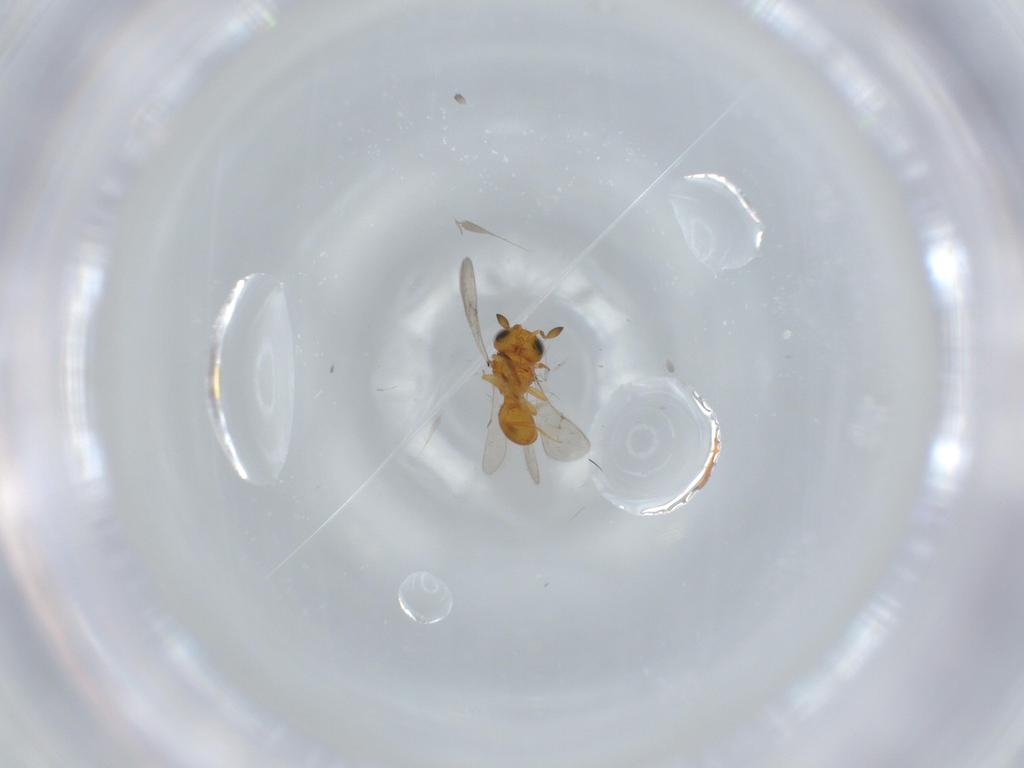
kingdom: Animalia
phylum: Arthropoda
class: Insecta
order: Hymenoptera
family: Scelionidae
